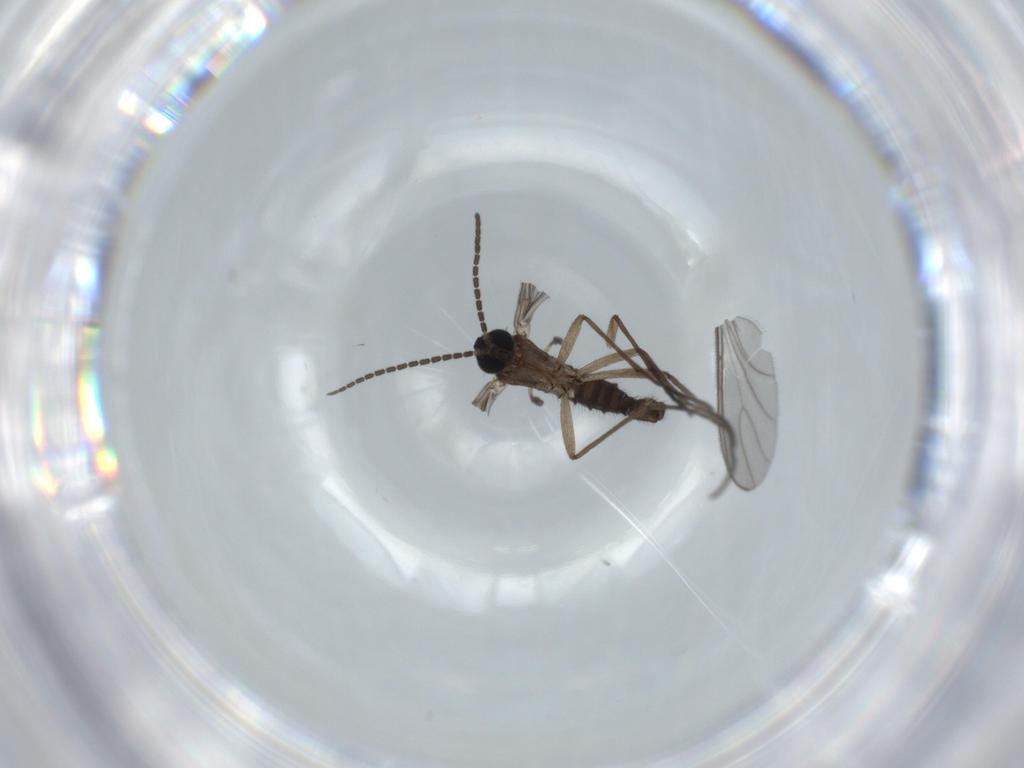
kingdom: Animalia
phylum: Arthropoda
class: Insecta
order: Diptera
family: Sciaridae
